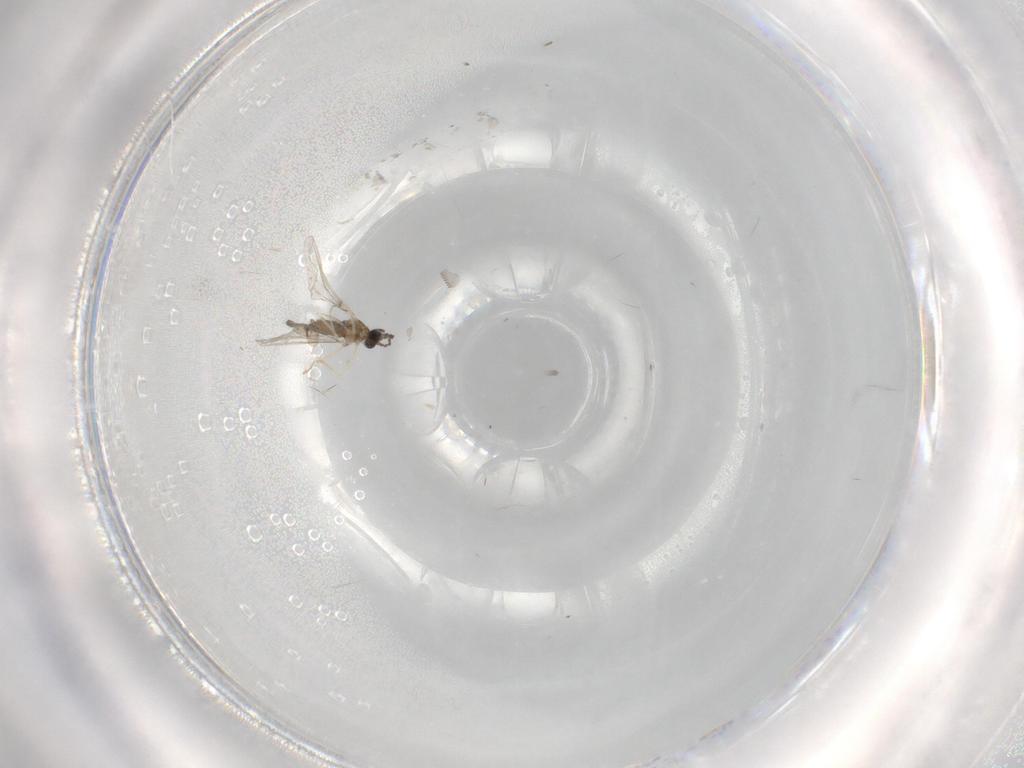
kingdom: Animalia
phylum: Arthropoda
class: Insecta
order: Diptera
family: Cecidomyiidae
